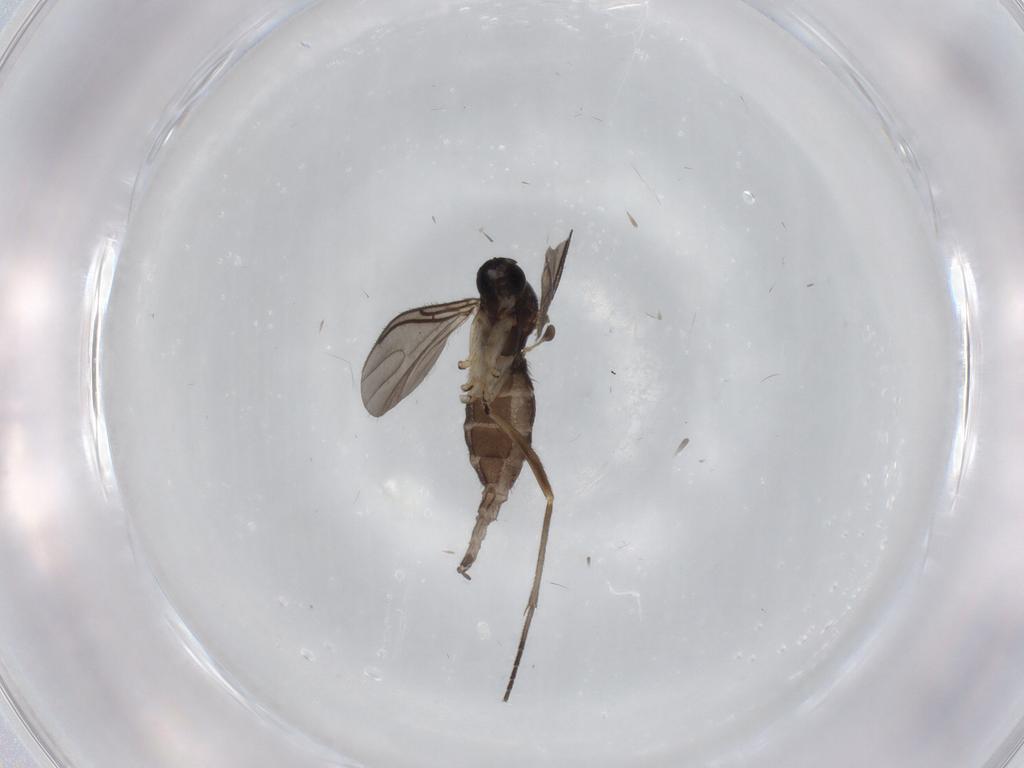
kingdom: Animalia
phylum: Arthropoda
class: Insecta
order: Diptera
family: Sciaridae
